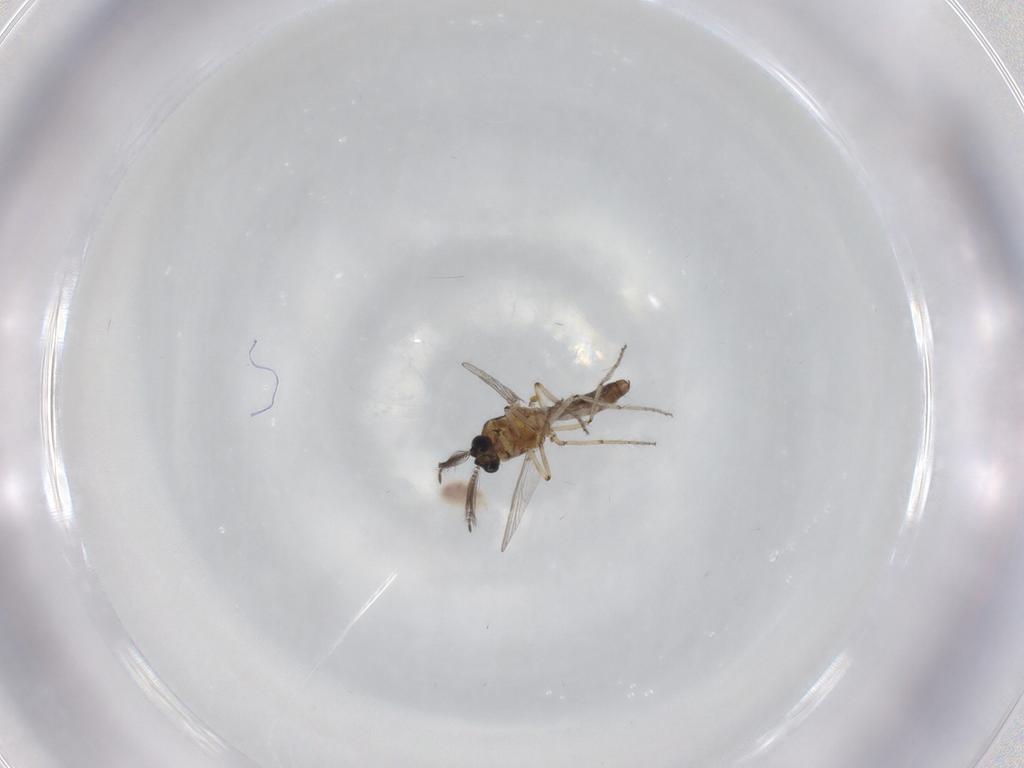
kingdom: Animalia
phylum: Arthropoda
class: Insecta
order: Diptera
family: Ceratopogonidae
